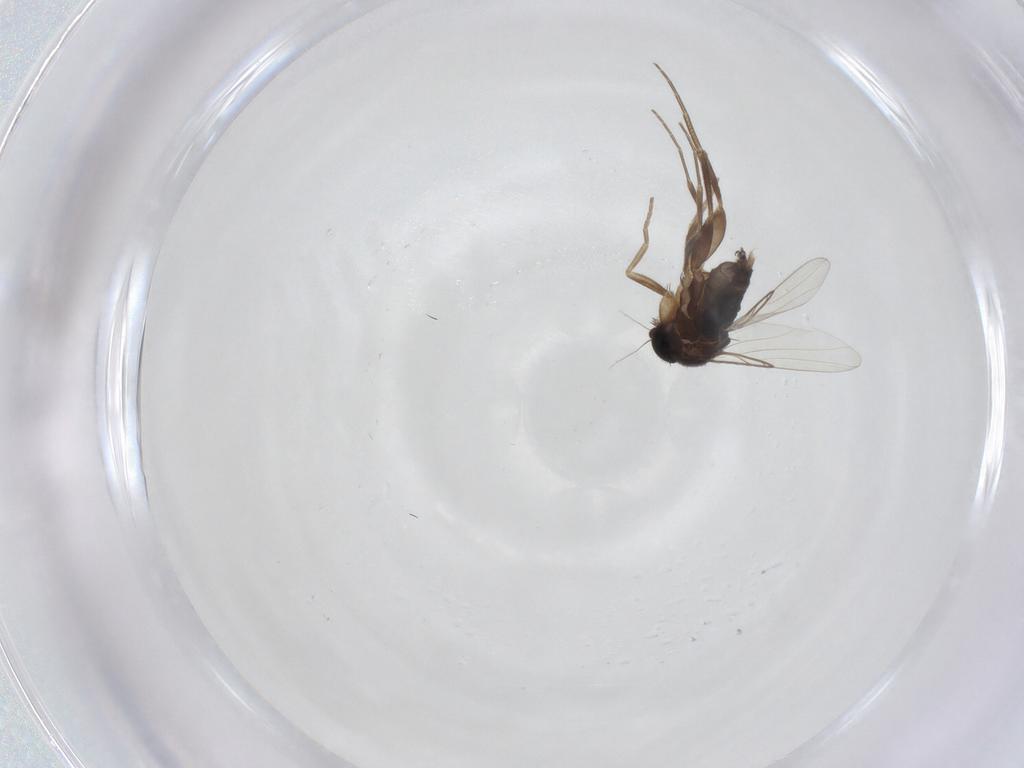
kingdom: Animalia
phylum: Arthropoda
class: Insecta
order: Diptera
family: Phoridae
